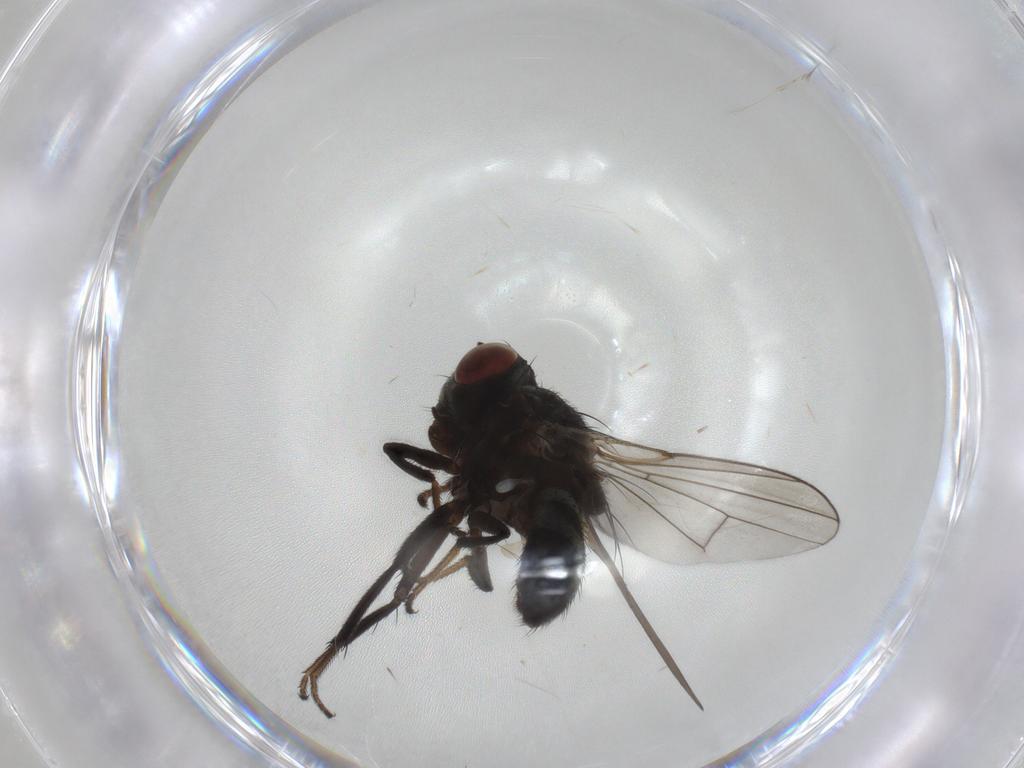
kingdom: Animalia
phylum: Arthropoda
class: Insecta
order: Diptera
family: Ephydridae
